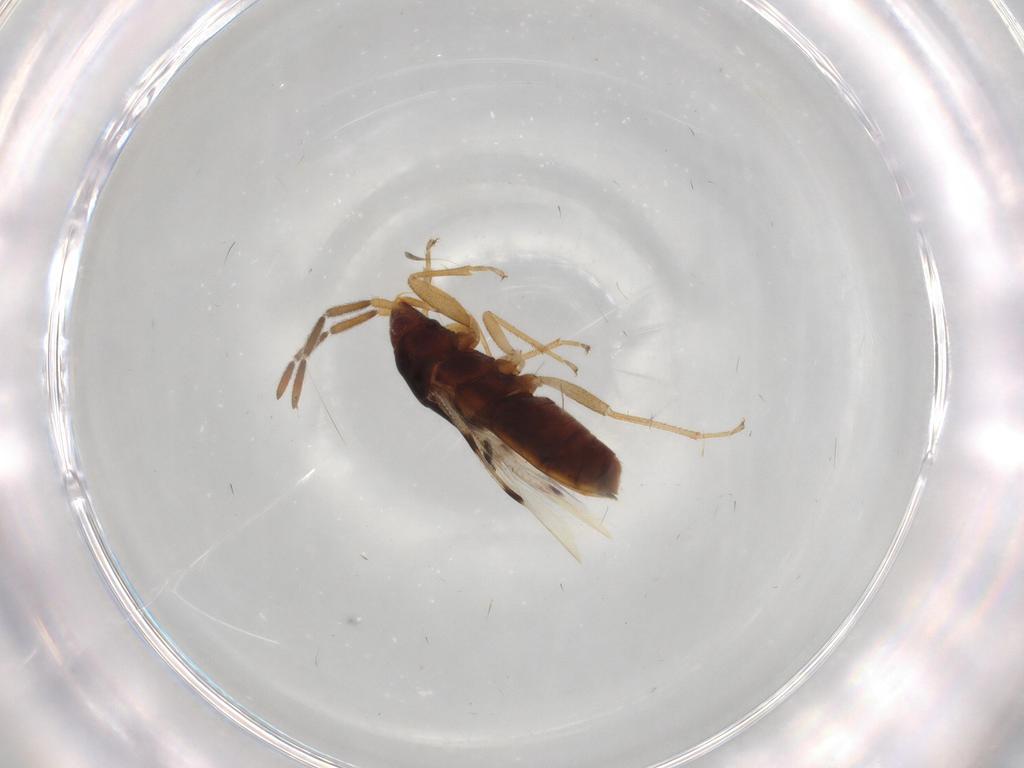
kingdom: Animalia
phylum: Arthropoda
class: Insecta
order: Hemiptera
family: Rhyparochromidae
